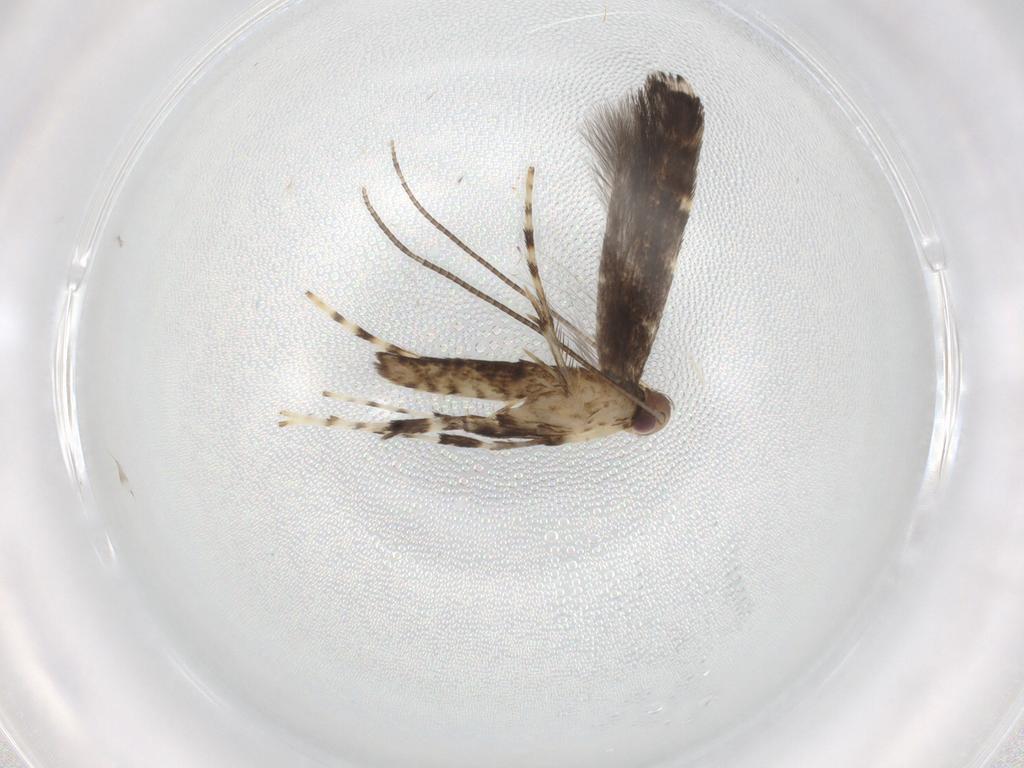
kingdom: Animalia
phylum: Arthropoda
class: Insecta
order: Lepidoptera
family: Gracillariidae
